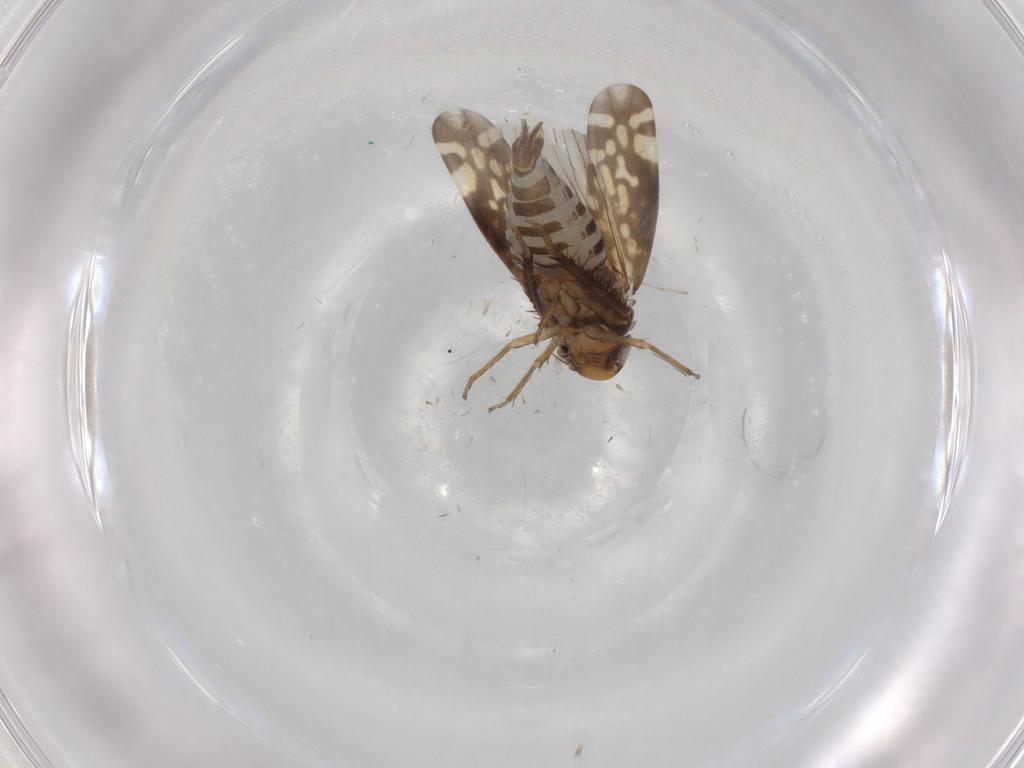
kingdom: Animalia
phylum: Arthropoda
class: Insecta
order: Hemiptera
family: Cicadellidae
